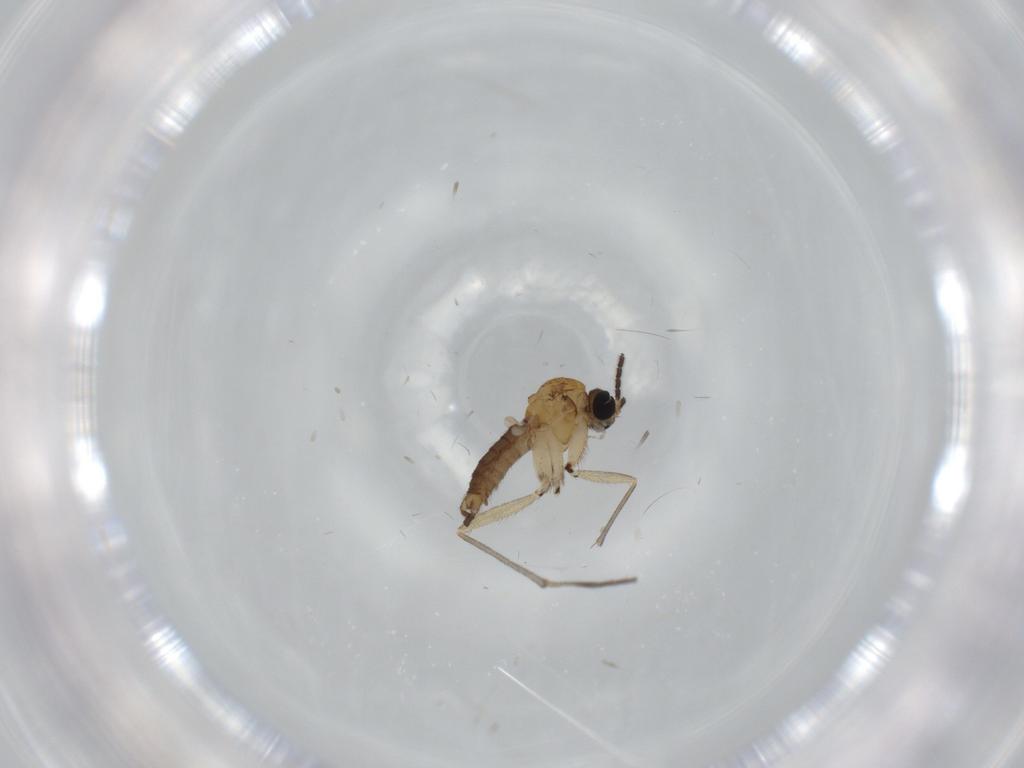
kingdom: Animalia
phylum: Arthropoda
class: Insecta
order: Diptera
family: Sciaridae
